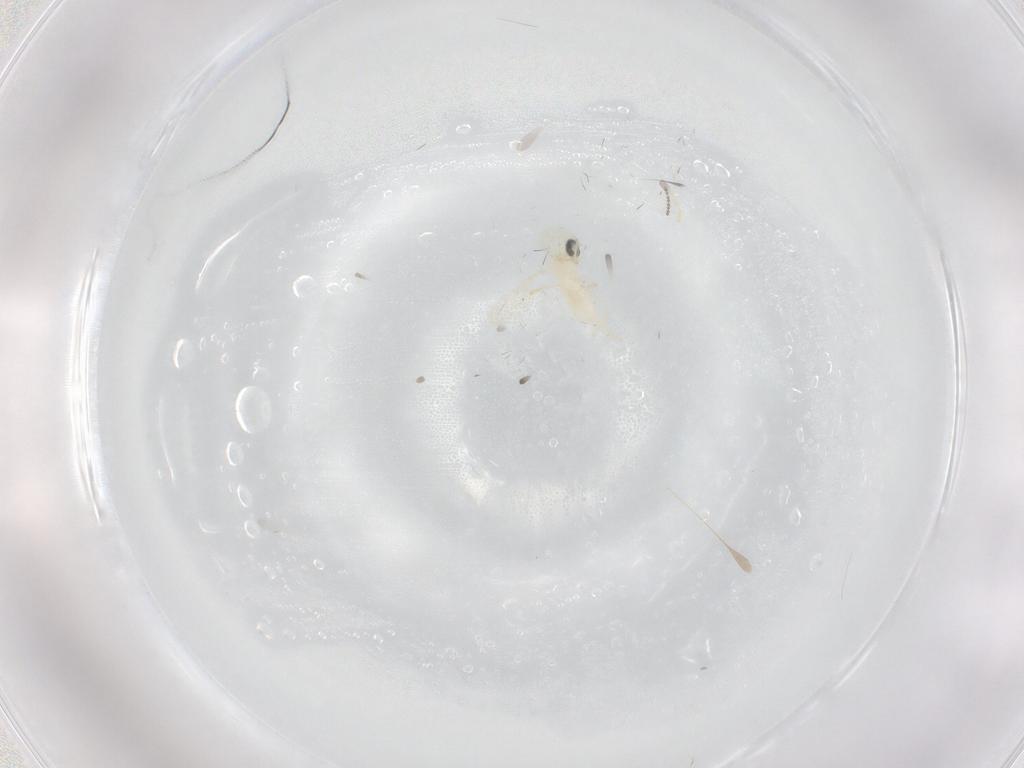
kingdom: Animalia
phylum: Arthropoda
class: Insecta
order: Diptera
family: Cecidomyiidae
